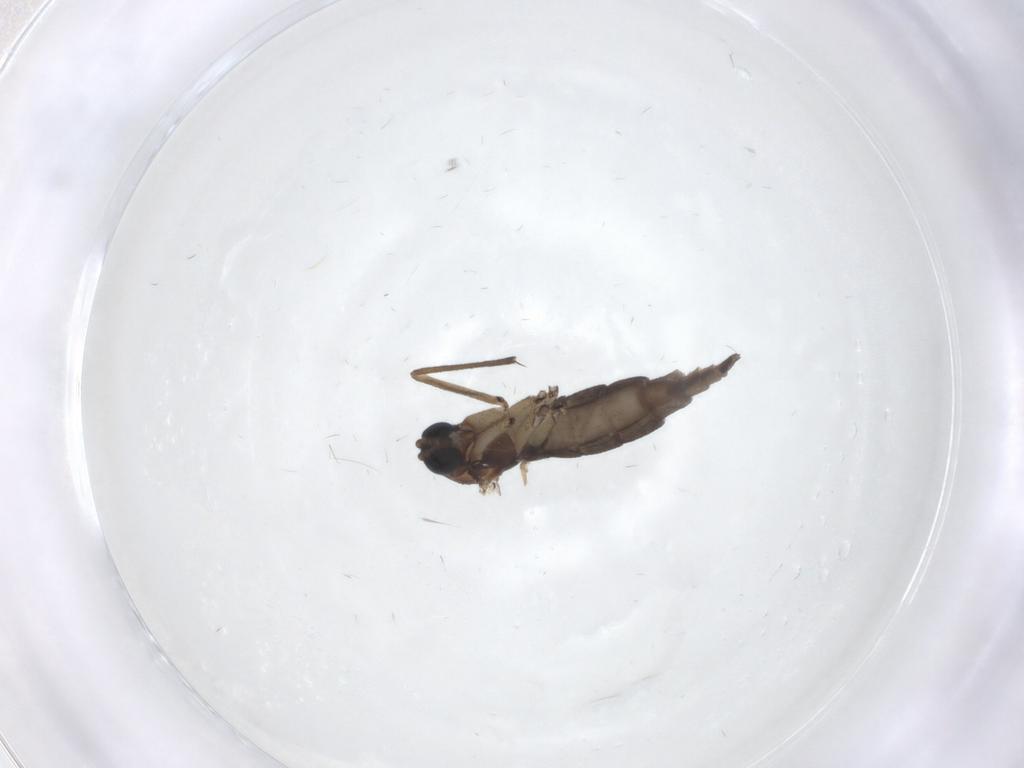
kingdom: Animalia
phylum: Arthropoda
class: Insecta
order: Diptera
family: Sciaridae
